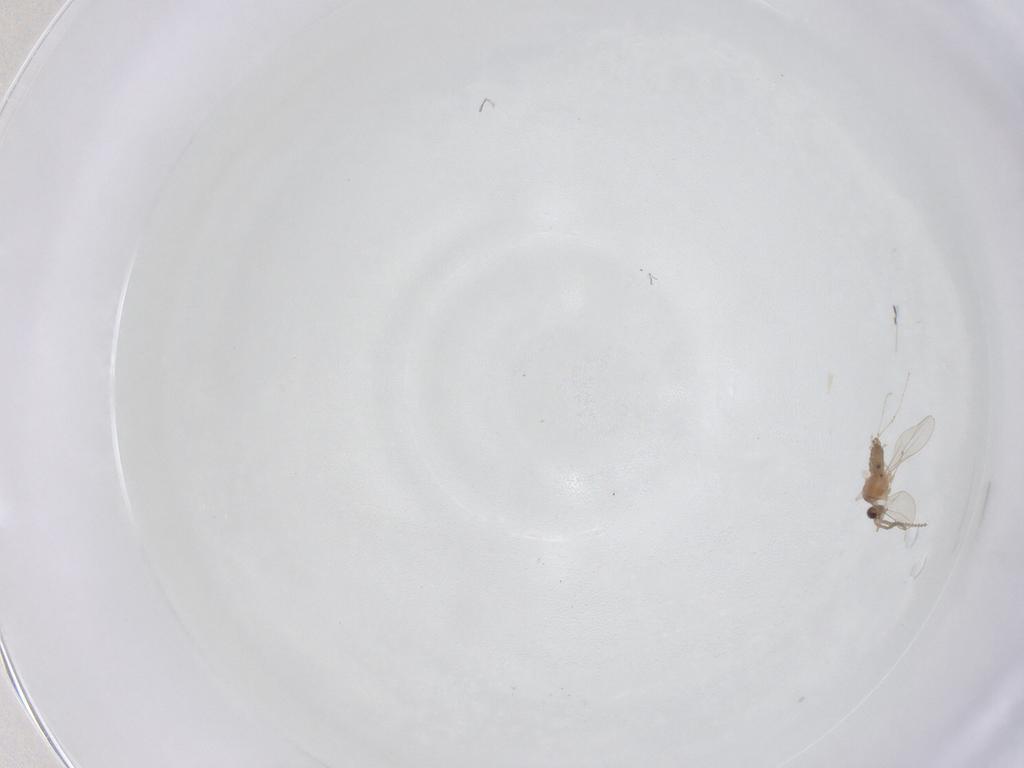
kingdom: Animalia
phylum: Arthropoda
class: Insecta
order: Diptera
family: Cecidomyiidae
